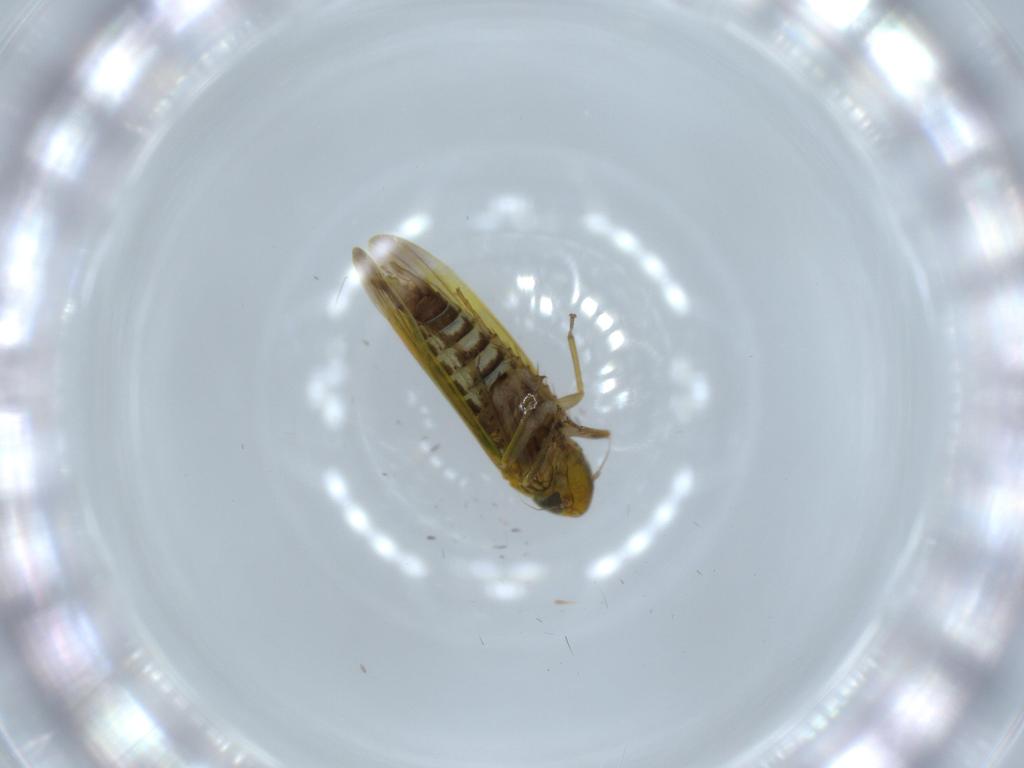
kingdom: Animalia
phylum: Arthropoda
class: Insecta
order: Hemiptera
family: Cicadellidae
